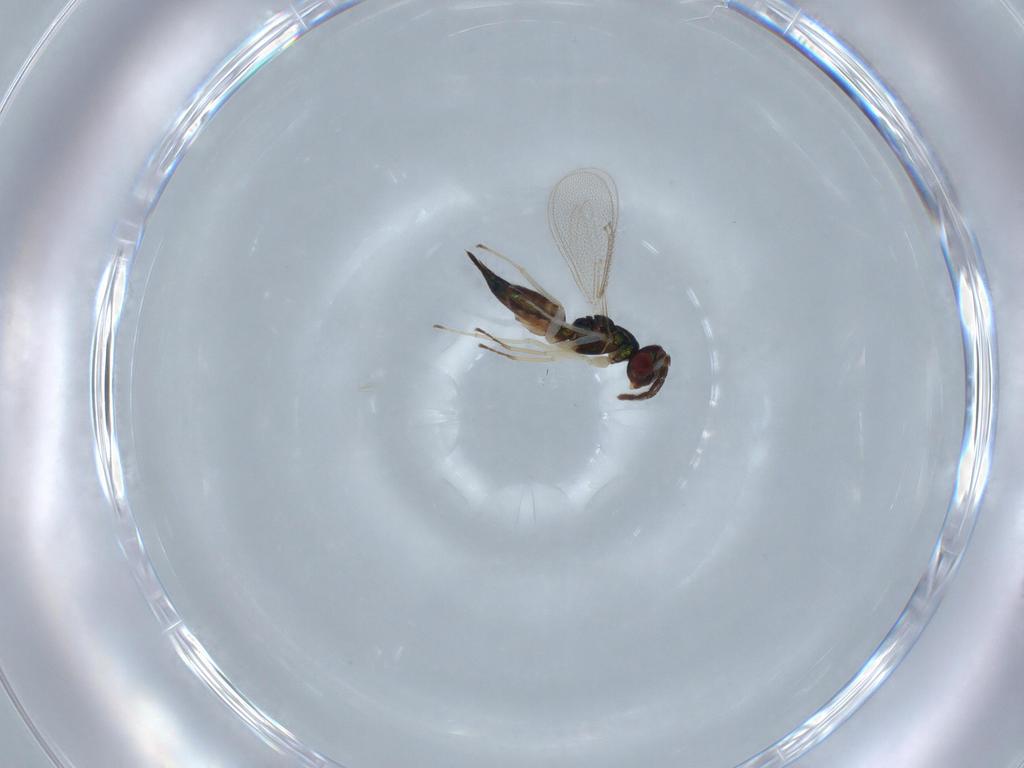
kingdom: Animalia
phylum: Arthropoda
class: Insecta
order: Hymenoptera
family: Eulophidae
